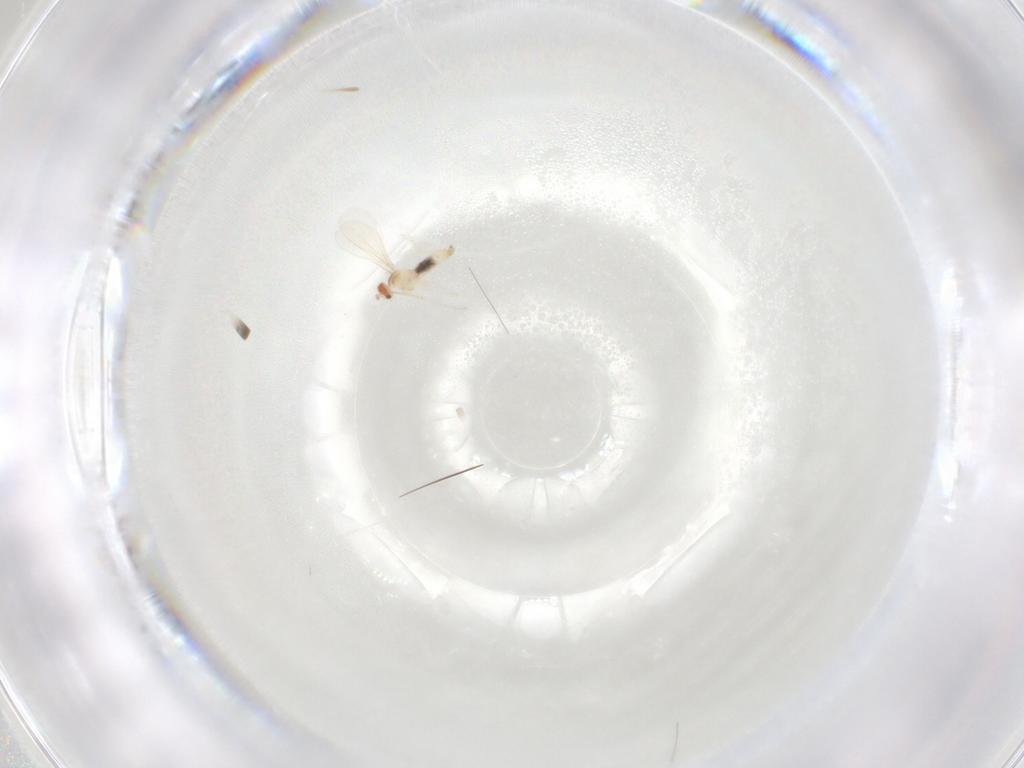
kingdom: Animalia
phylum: Arthropoda
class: Insecta
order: Diptera
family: Cecidomyiidae
